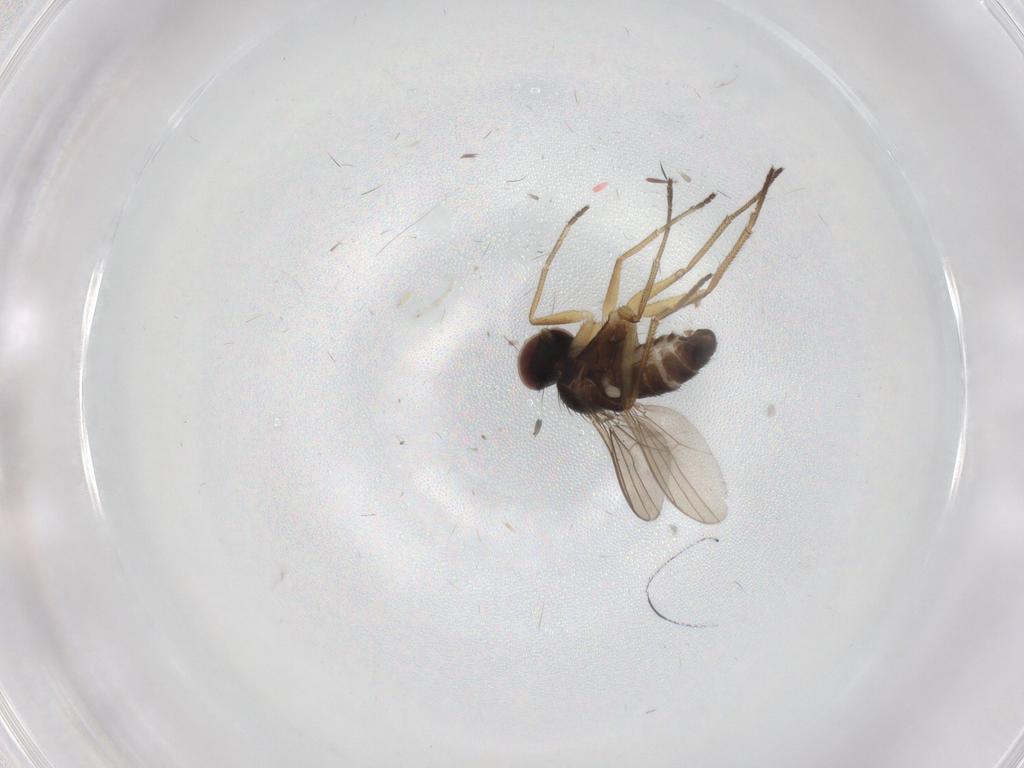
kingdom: Animalia
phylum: Arthropoda
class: Insecta
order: Diptera
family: Dolichopodidae
